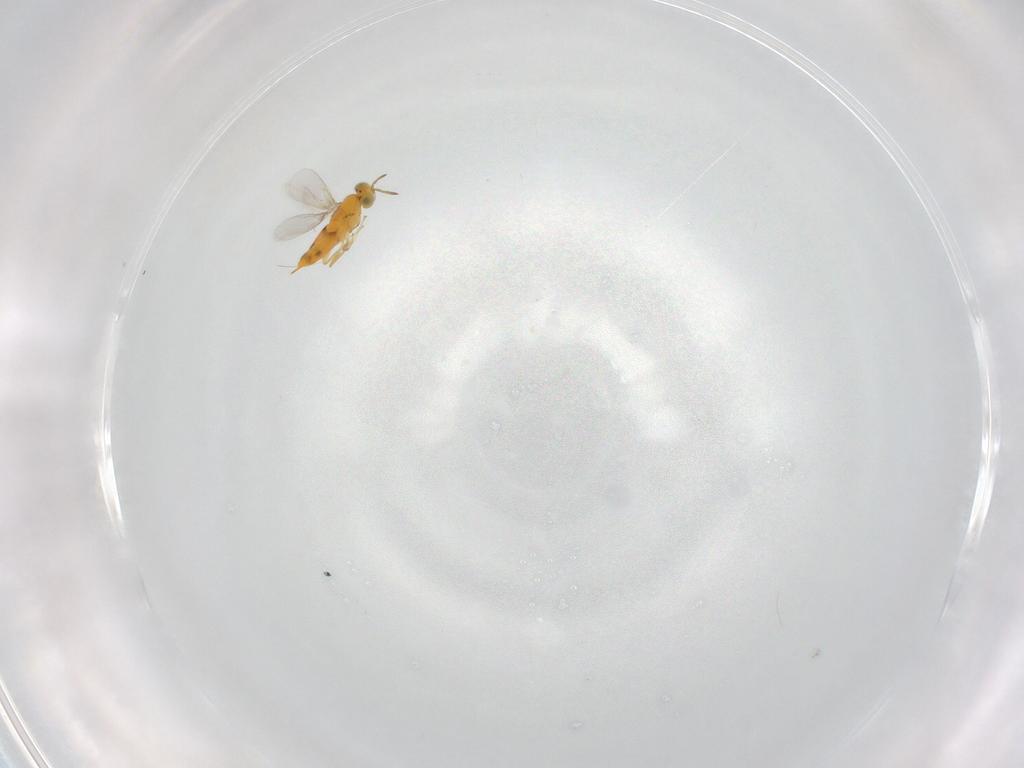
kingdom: Animalia
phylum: Arthropoda
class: Insecta
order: Hymenoptera
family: Aphelinidae
